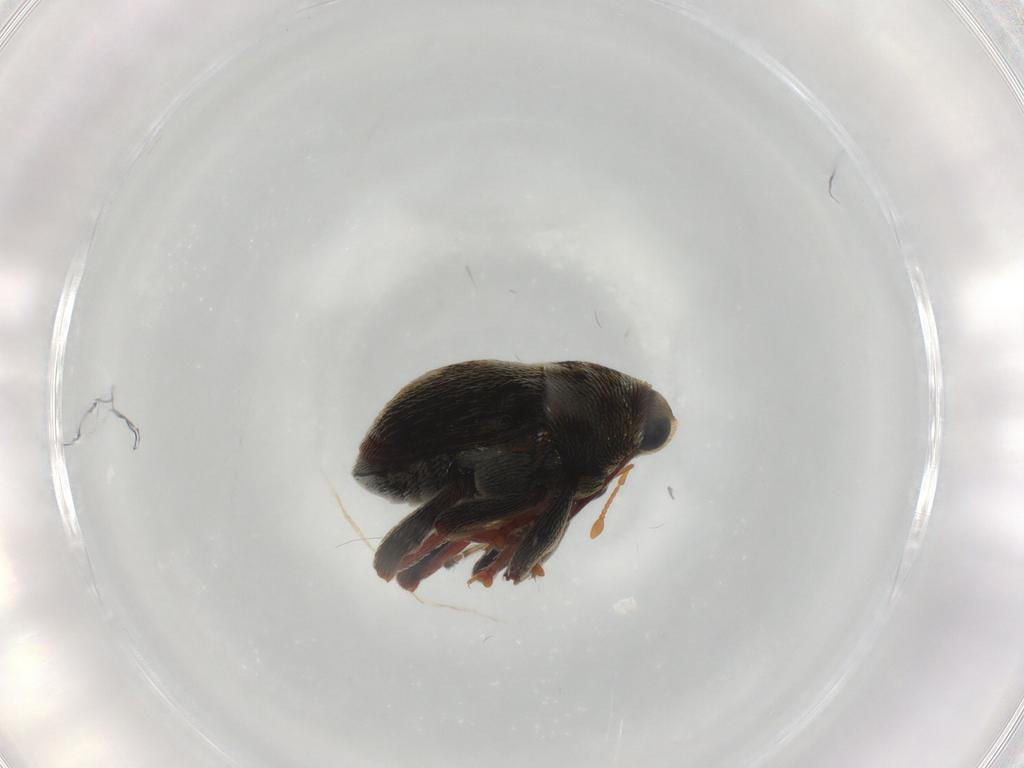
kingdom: Animalia
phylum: Arthropoda
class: Insecta
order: Coleoptera
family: Curculionidae
